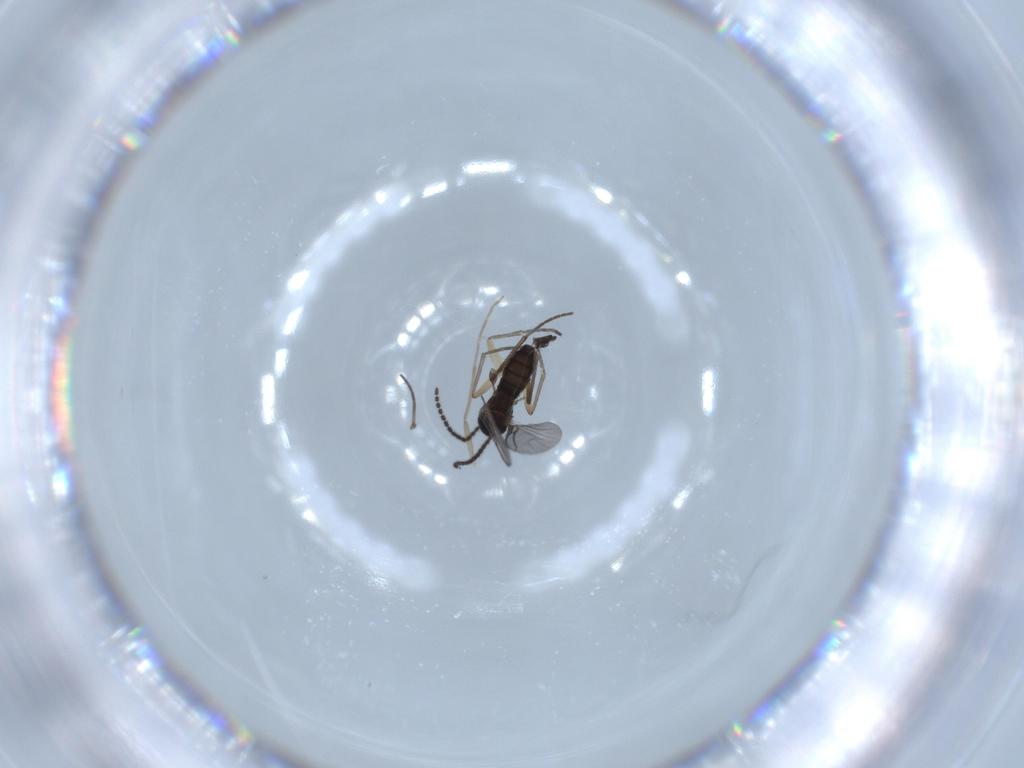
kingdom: Animalia
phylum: Arthropoda
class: Insecta
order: Diptera
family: Sciaridae
